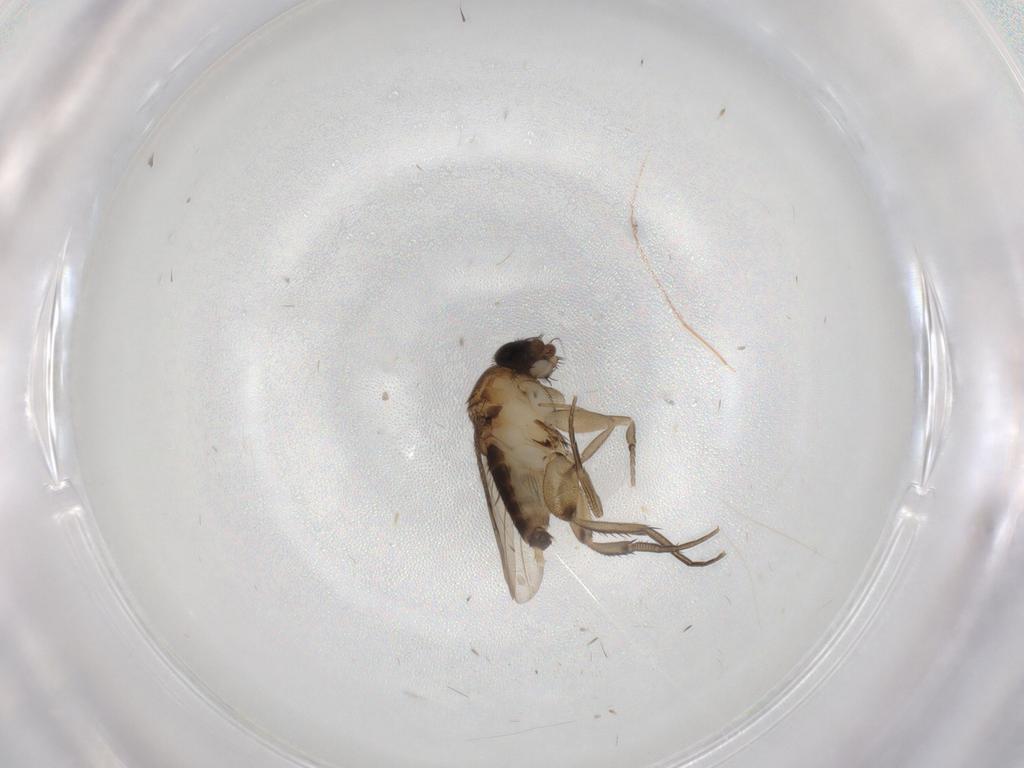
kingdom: Animalia
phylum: Arthropoda
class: Insecta
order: Diptera
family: Phoridae
